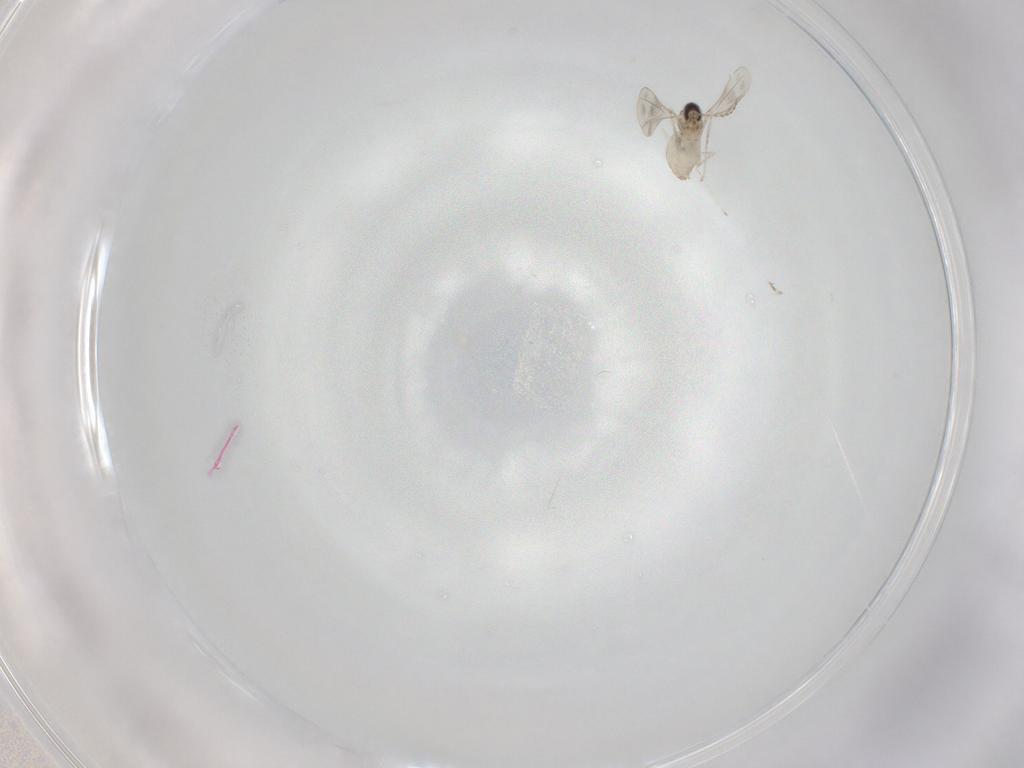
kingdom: Animalia
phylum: Arthropoda
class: Insecta
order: Diptera
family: Cecidomyiidae
